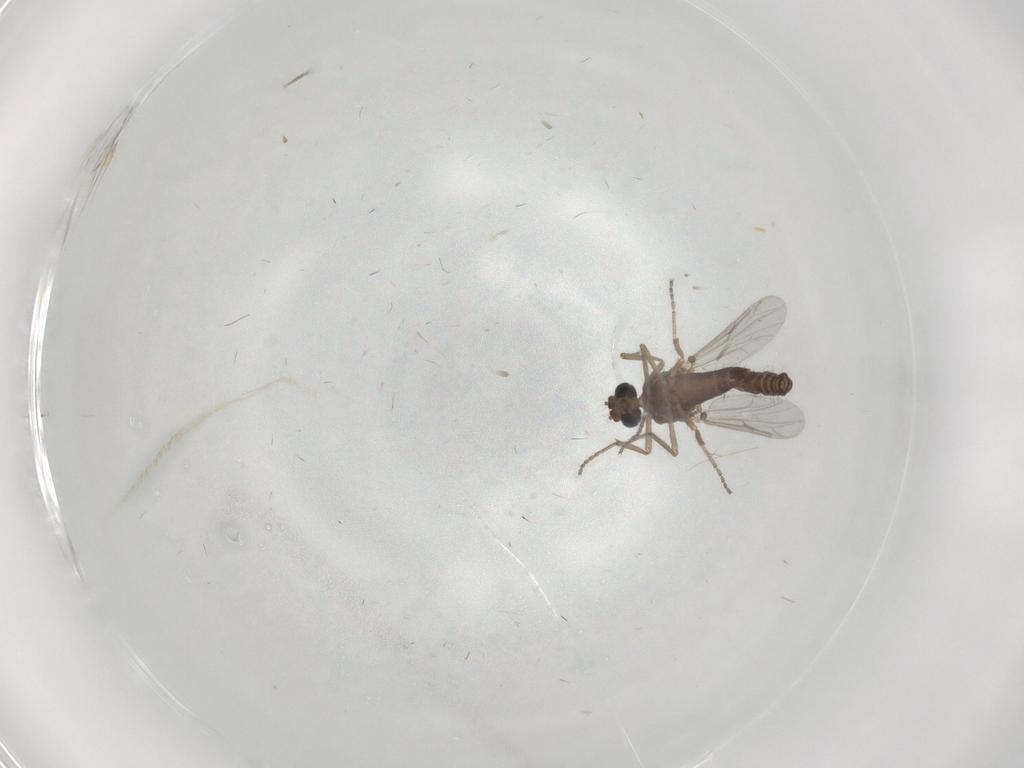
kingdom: Animalia
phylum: Arthropoda
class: Insecta
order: Diptera
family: Ceratopogonidae
